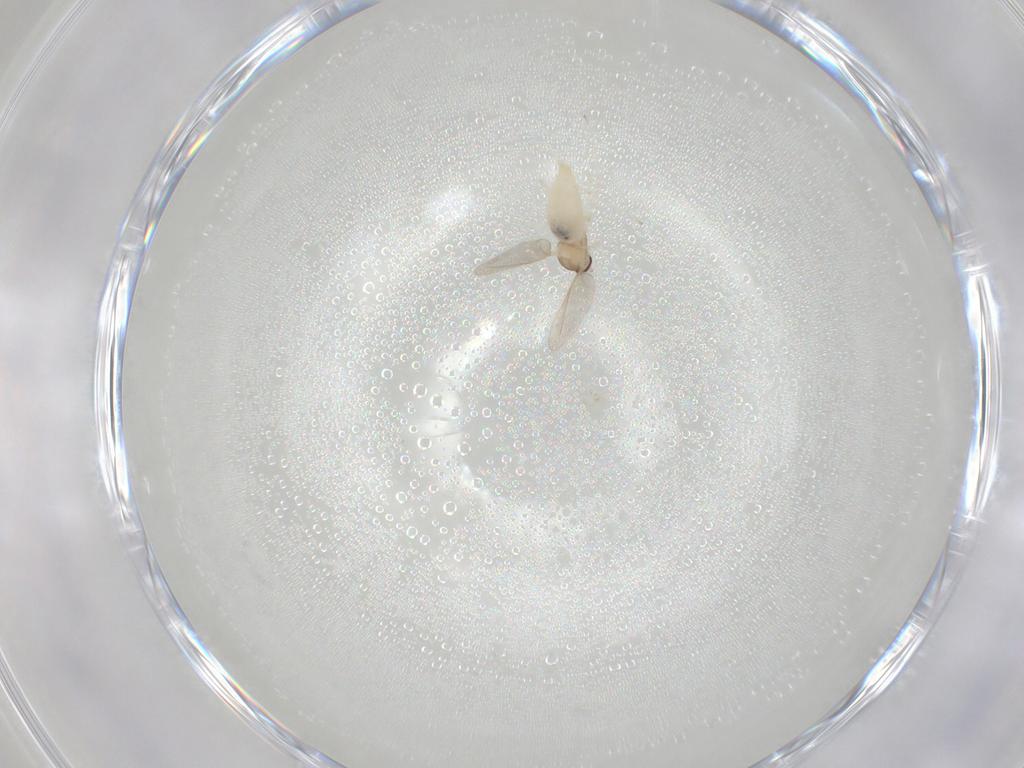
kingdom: Animalia
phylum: Arthropoda
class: Insecta
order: Diptera
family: Cecidomyiidae
